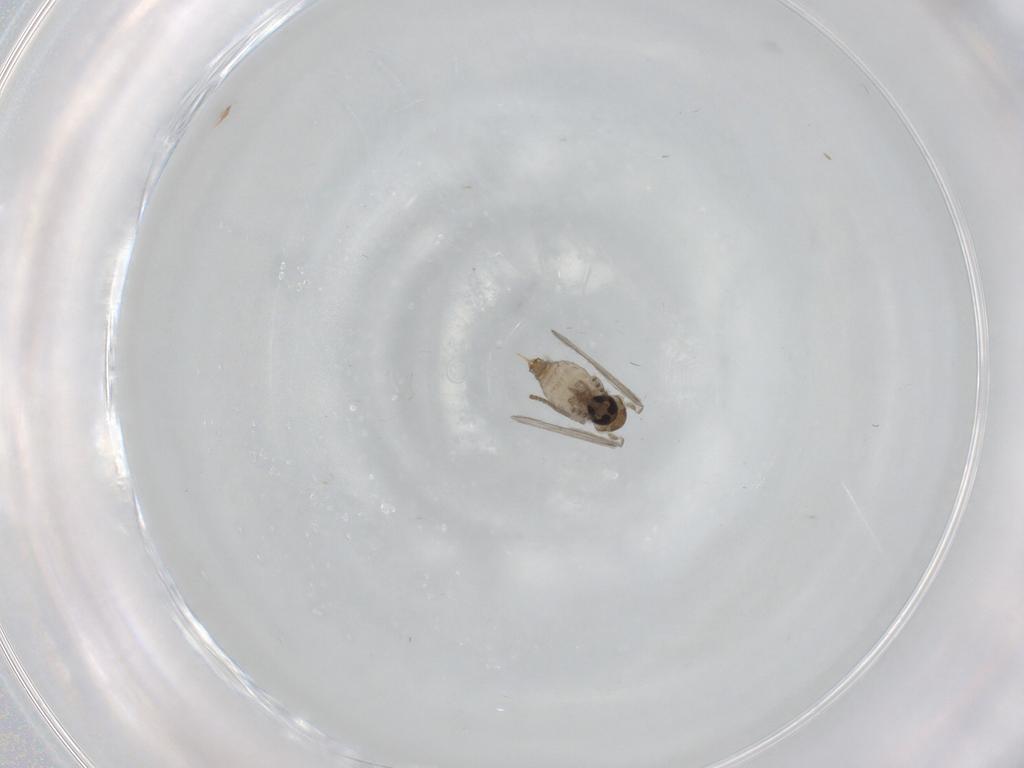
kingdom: Animalia
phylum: Arthropoda
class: Insecta
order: Diptera
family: Psychodidae
